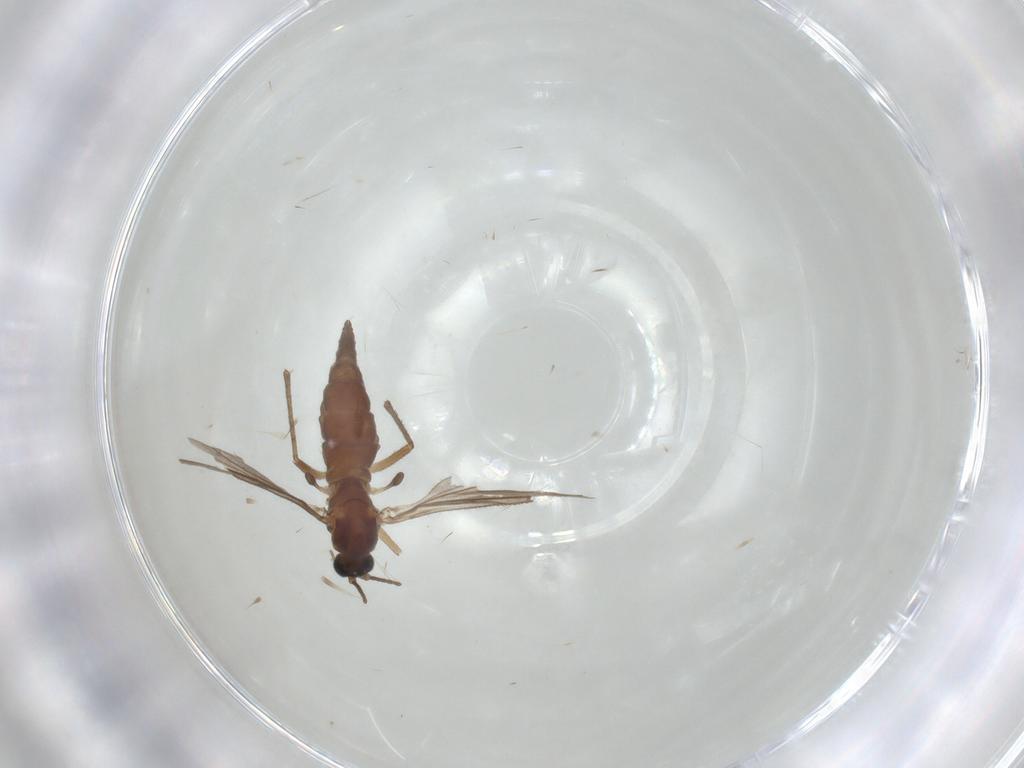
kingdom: Animalia
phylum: Arthropoda
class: Insecta
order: Diptera
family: Sciaridae
